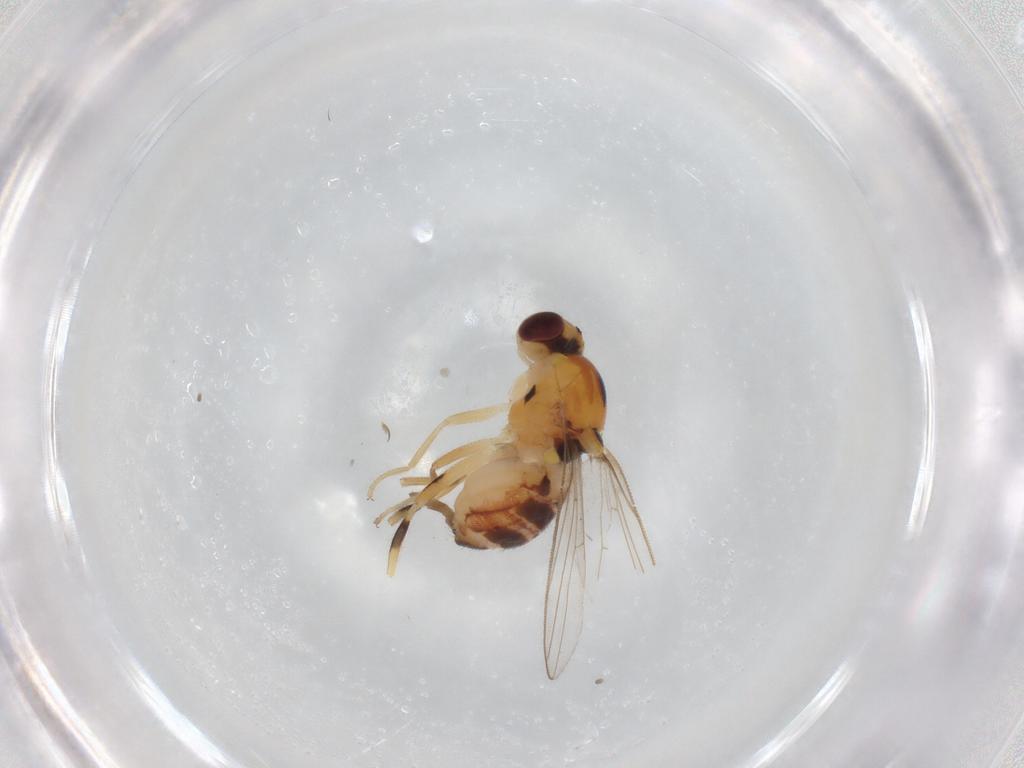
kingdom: Animalia
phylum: Arthropoda
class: Insecta
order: Diptera
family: Chloropidae
